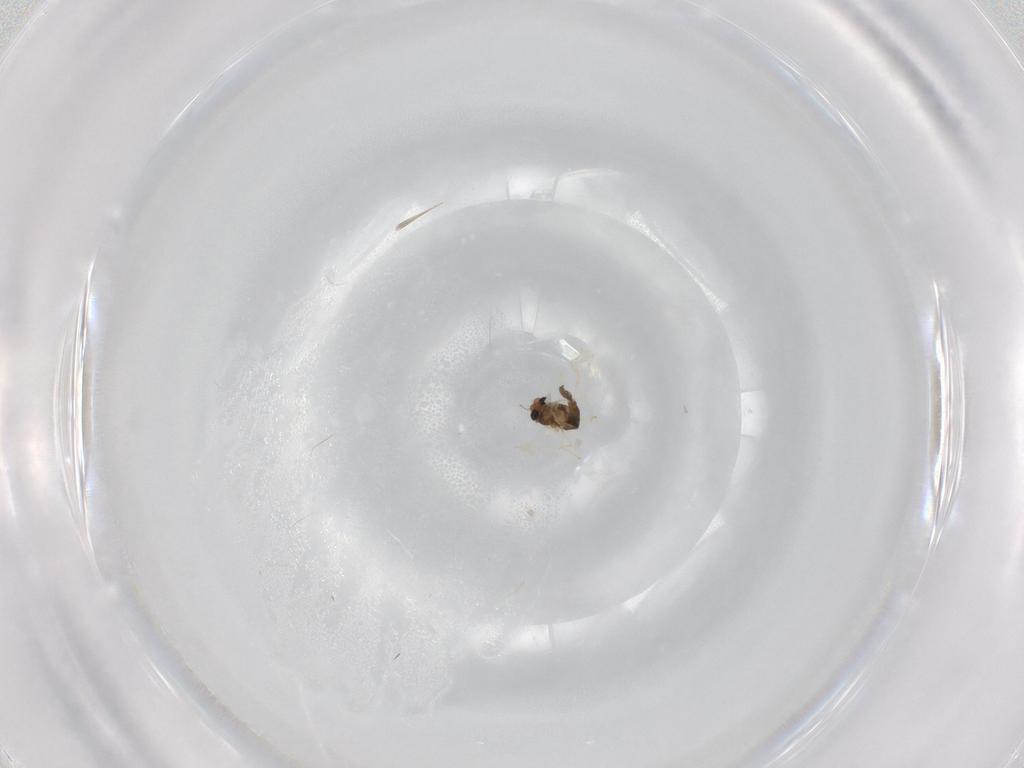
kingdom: Animalia
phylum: Arthropoda
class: Insecta
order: Diptera
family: Chironomidae
